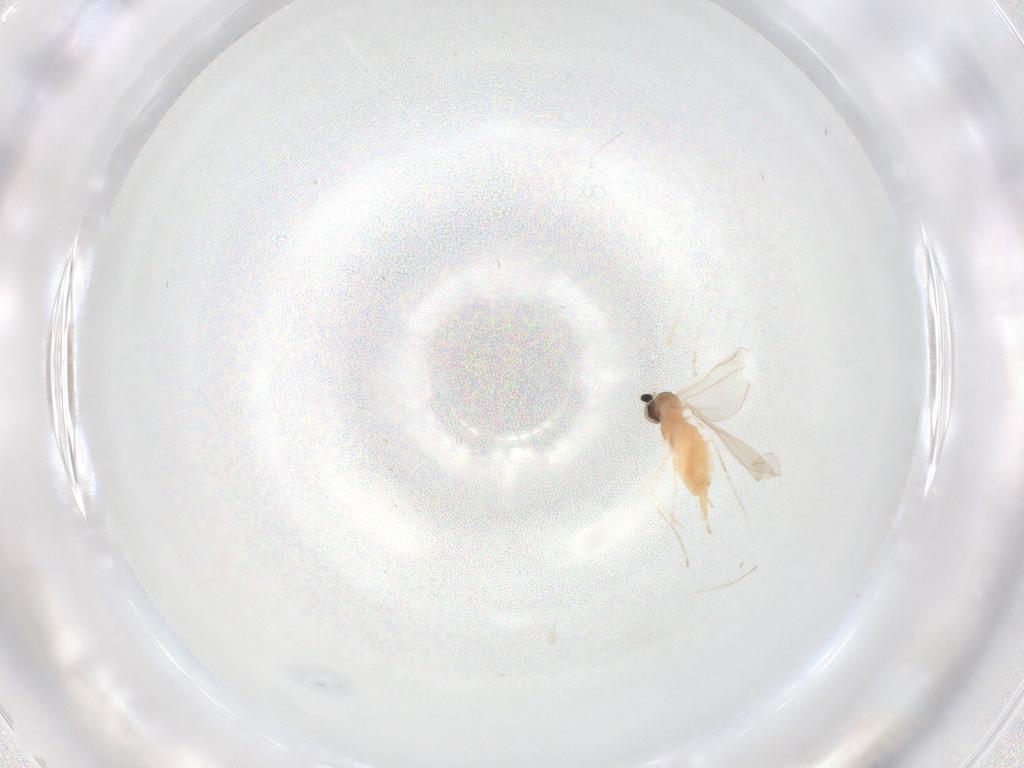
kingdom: Animalia
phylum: Arthropoda
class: Insecta
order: Diptera
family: Cecidomyiidae
